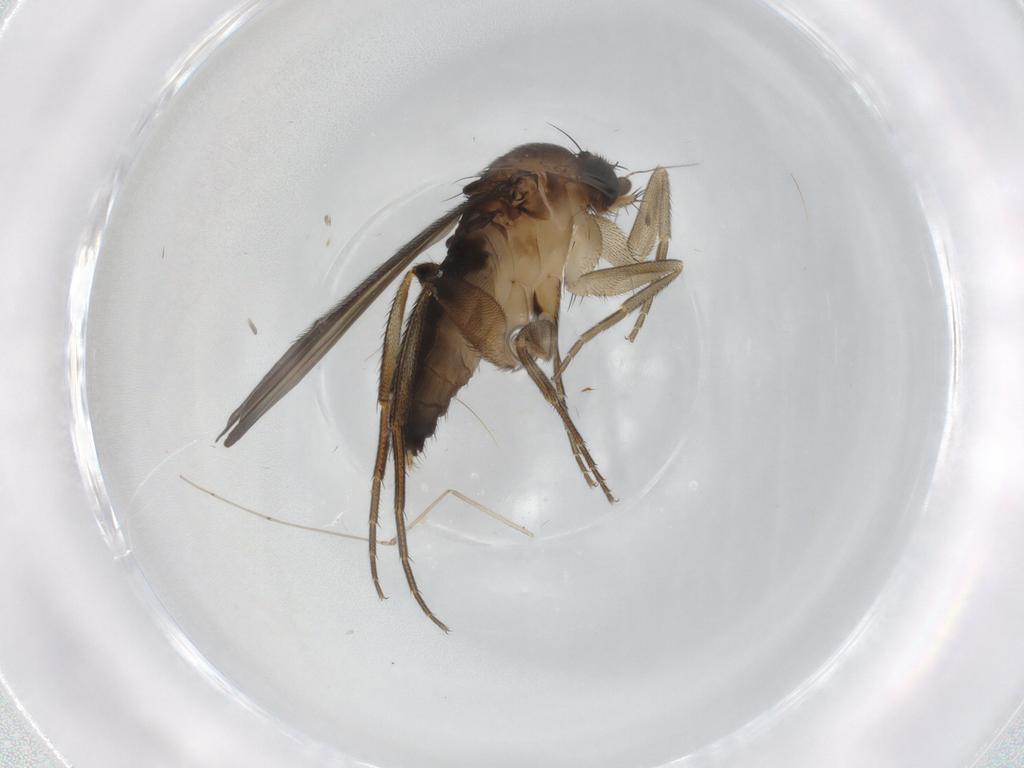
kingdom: Animalia
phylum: Arthropoda
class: Insecta
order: Diptera
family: Phoridae
